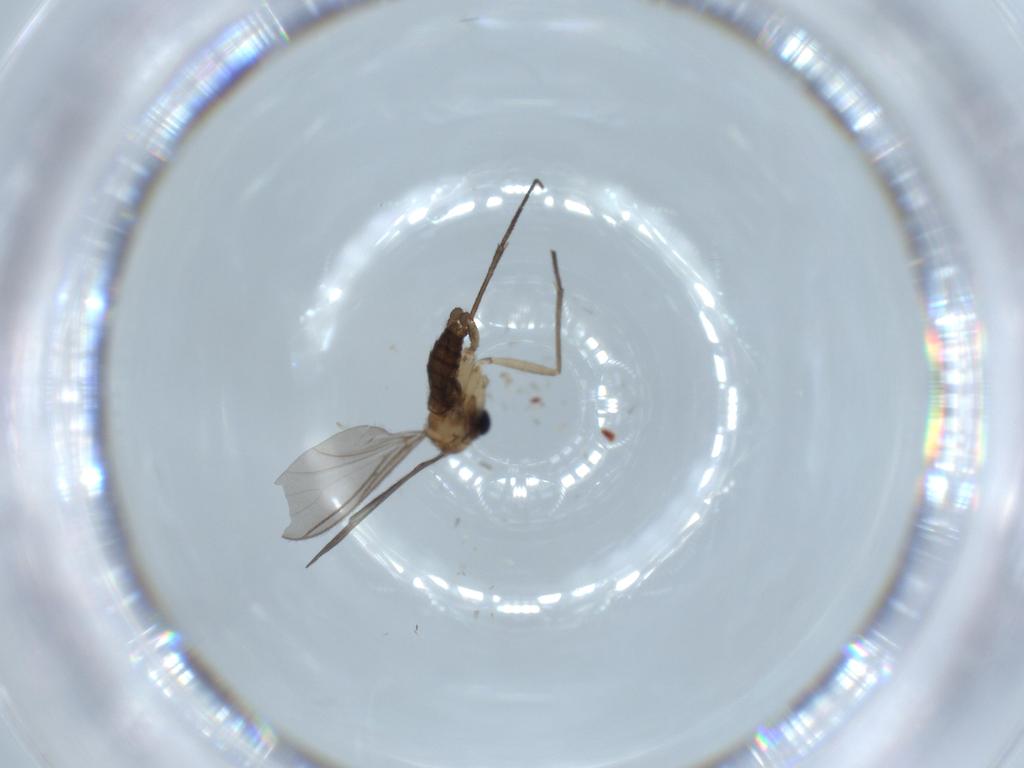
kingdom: Animalia
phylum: Arthropoda
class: Insecta
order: Diptera
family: Sciaridae
